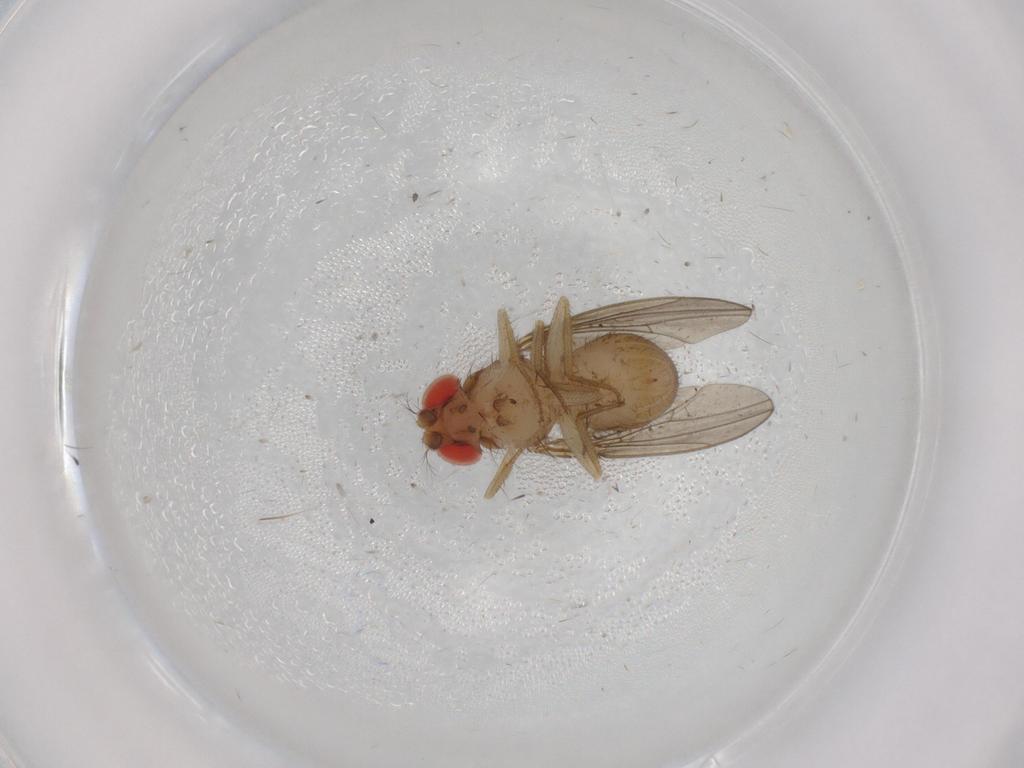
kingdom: Animalia
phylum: Arthropoda
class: Insecta
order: Diptera
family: Drosophilidae
